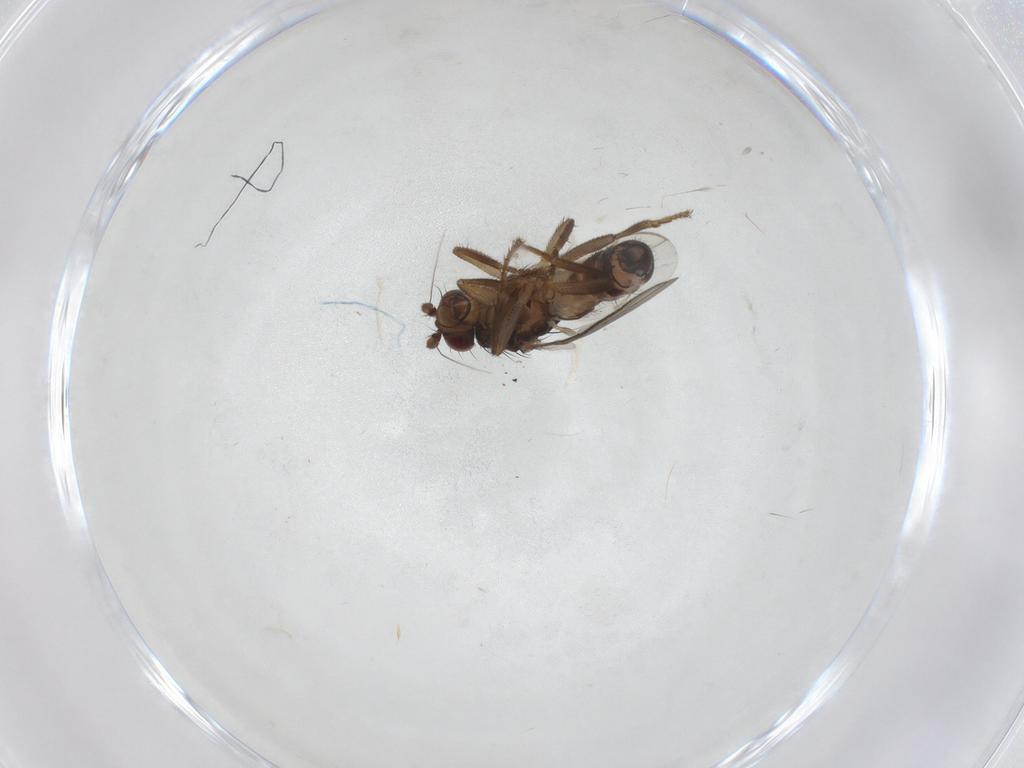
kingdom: Animalia
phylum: Arthropoda
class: Insecta
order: Diptera
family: Sphaeroceridae
